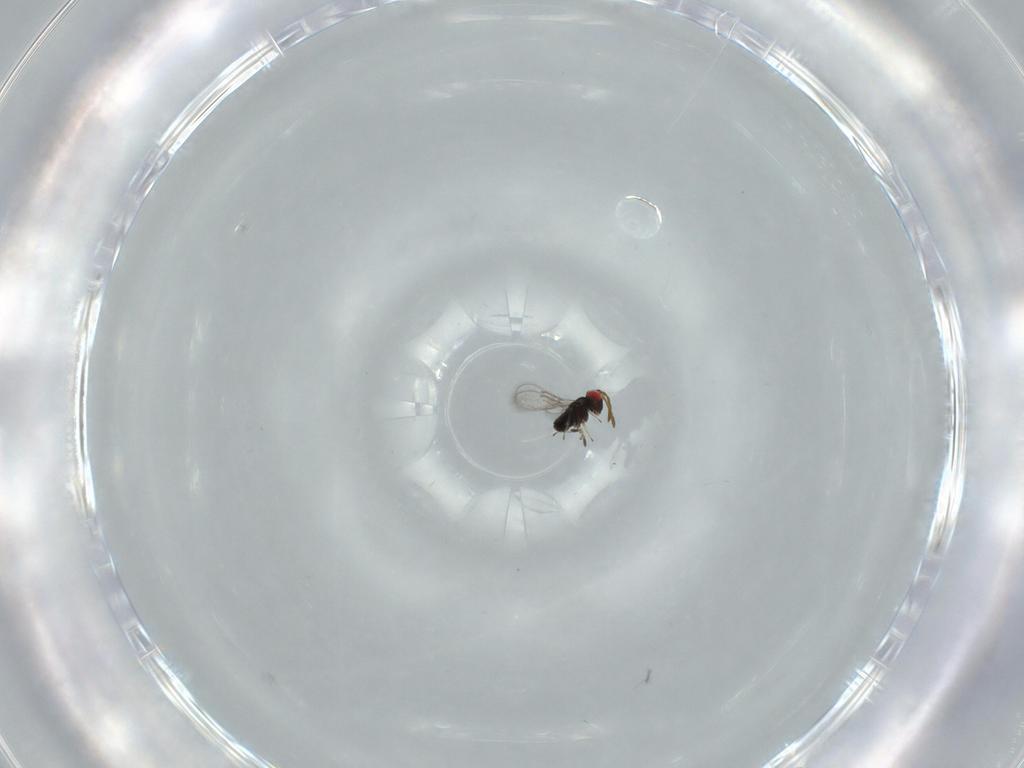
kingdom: Animalia
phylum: Arthropoda
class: Insecta
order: Hymenoptera
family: Azotidae
